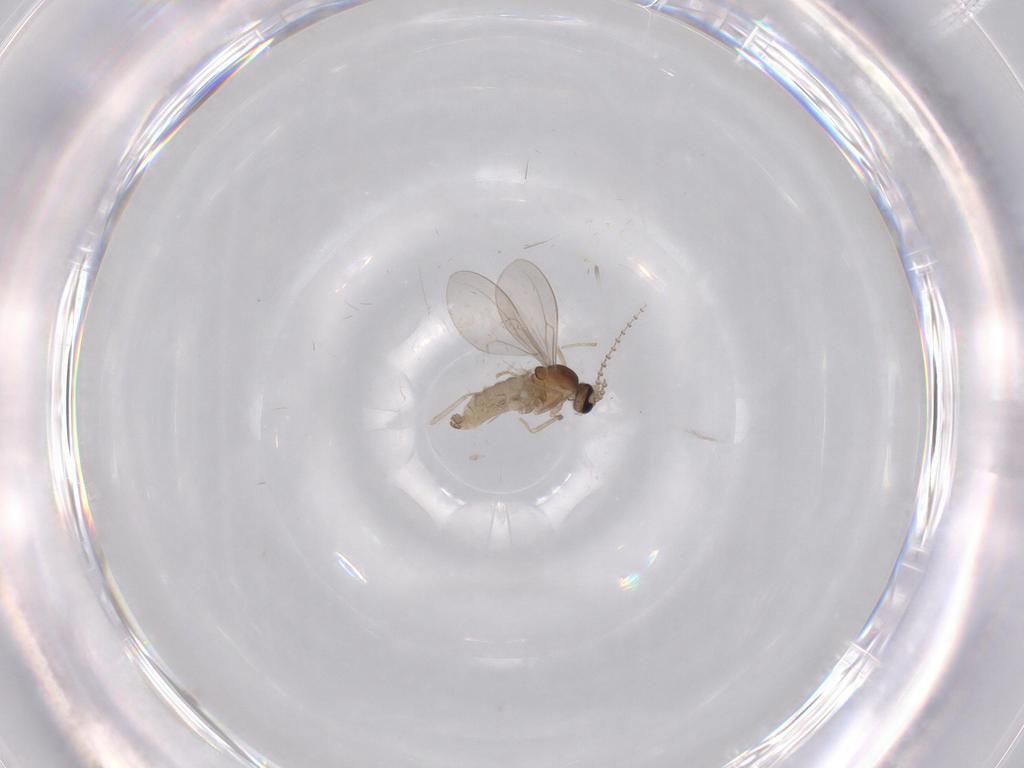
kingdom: Animalia
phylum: Arthropoda
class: Insecta
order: Diptera
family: Cecidomyiidae
